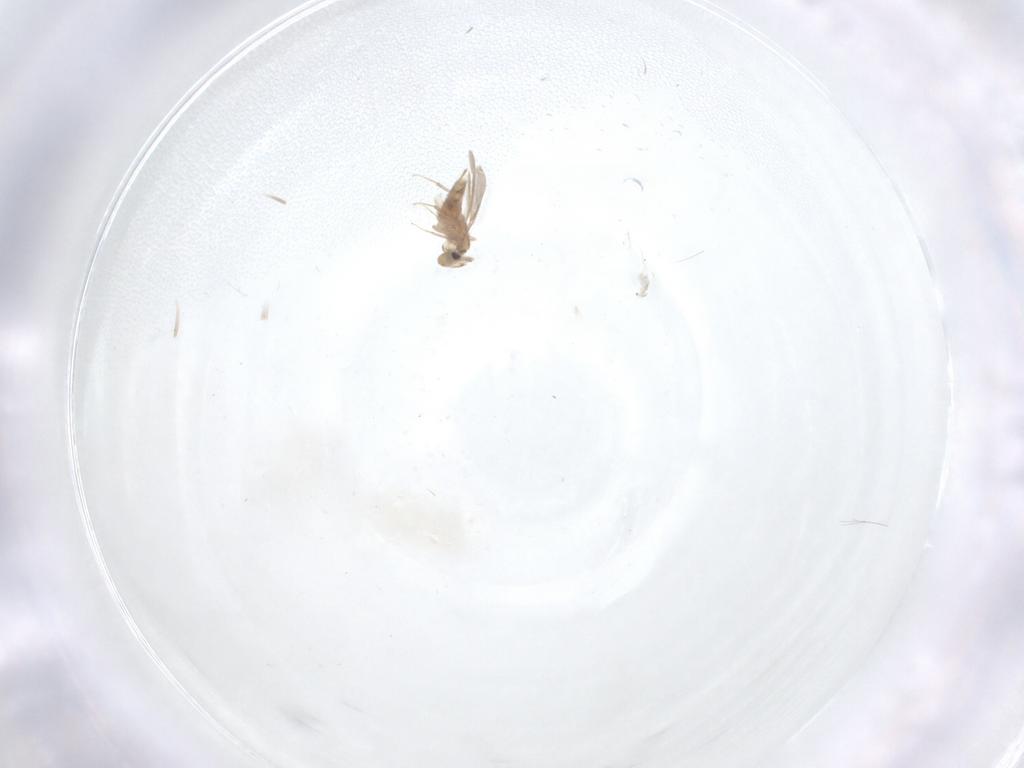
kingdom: Animalia
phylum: Arthropoda
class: Insecta
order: Hymenoptera
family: Aphelinidae
